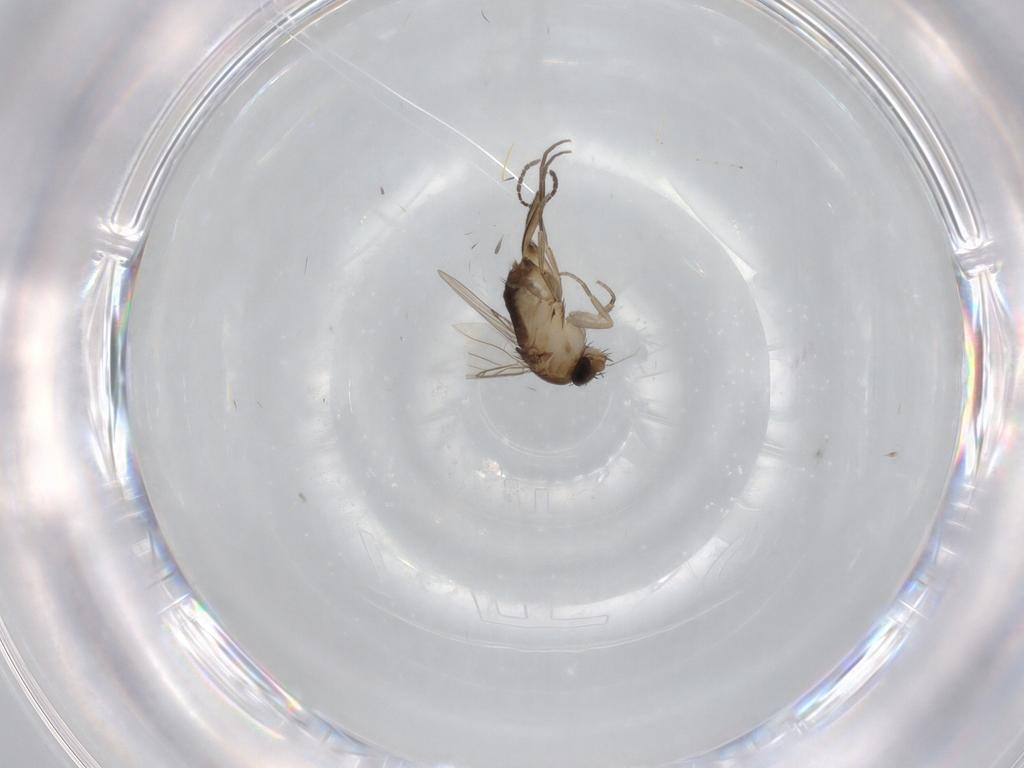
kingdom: Animalia
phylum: Arthropoda
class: Insecta
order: Diptera
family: Sciaridae
